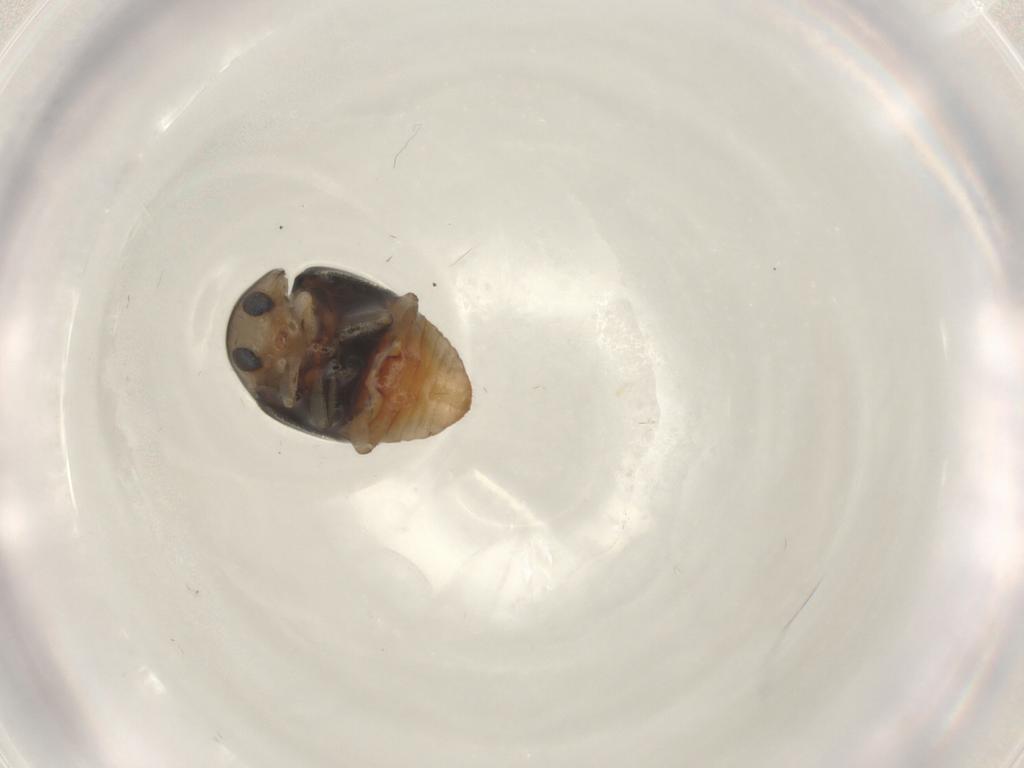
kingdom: Animalia
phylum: Arthropoda
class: Insecta
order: Coleoptera
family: Coccinellidae
